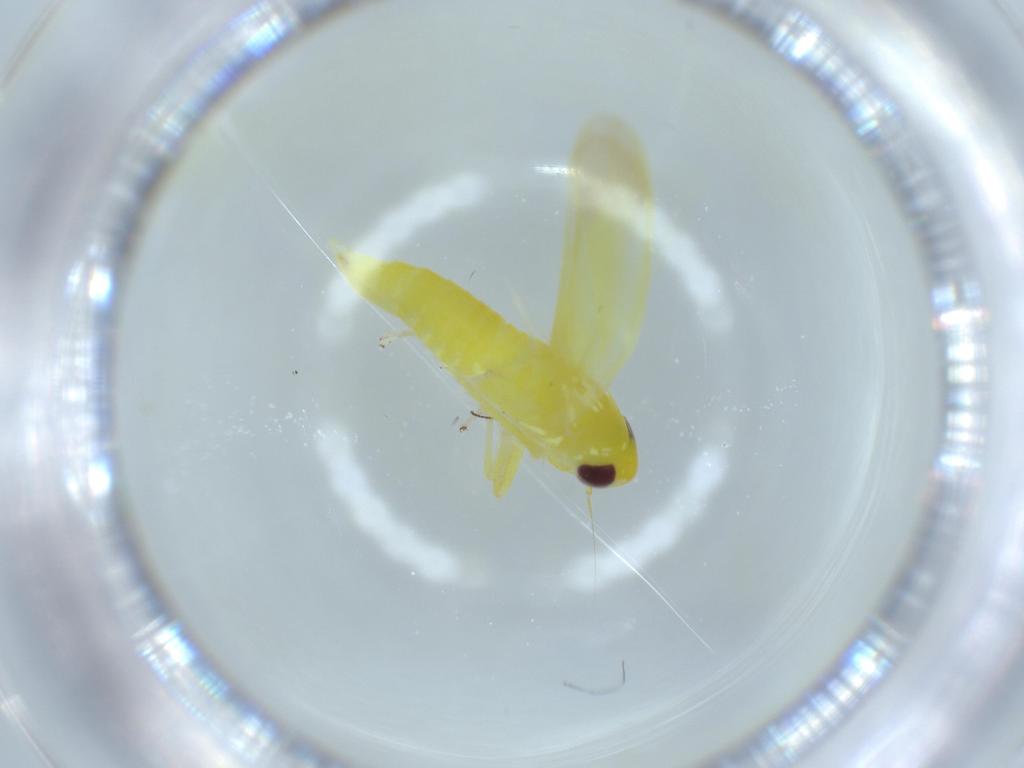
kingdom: Animalia
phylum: Arthropoda
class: Insecta
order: Hemiptera
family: Cicadellidae
